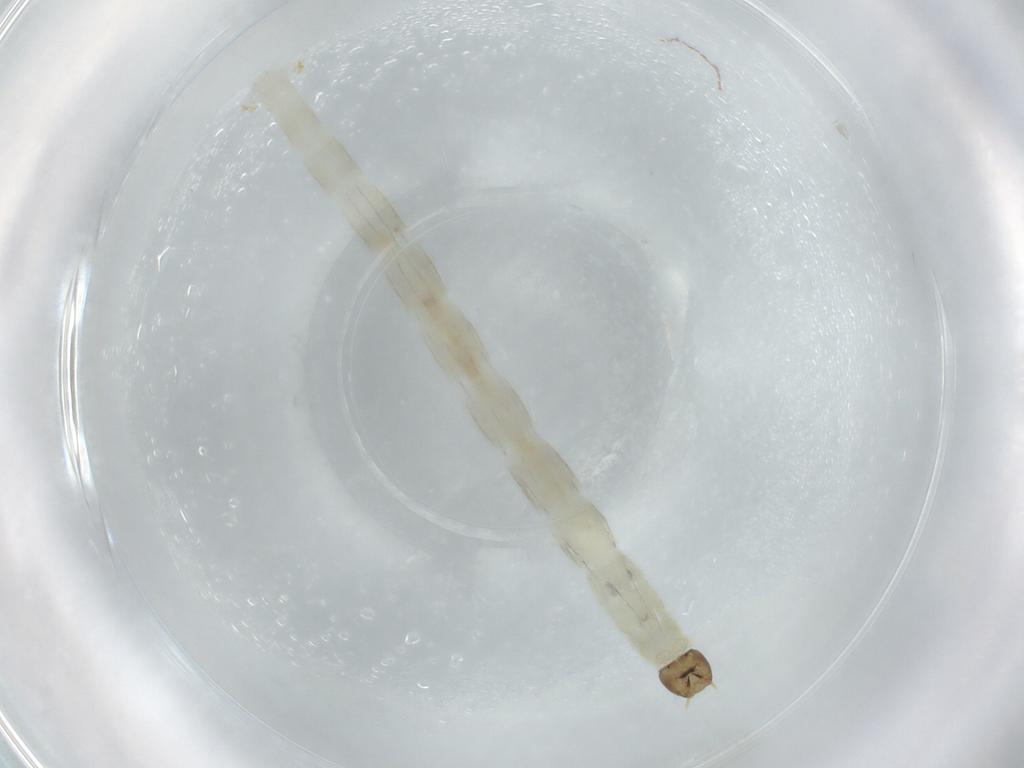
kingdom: Animalia
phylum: Arthropoda
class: Insecta
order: Diptera
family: Chironomidae
